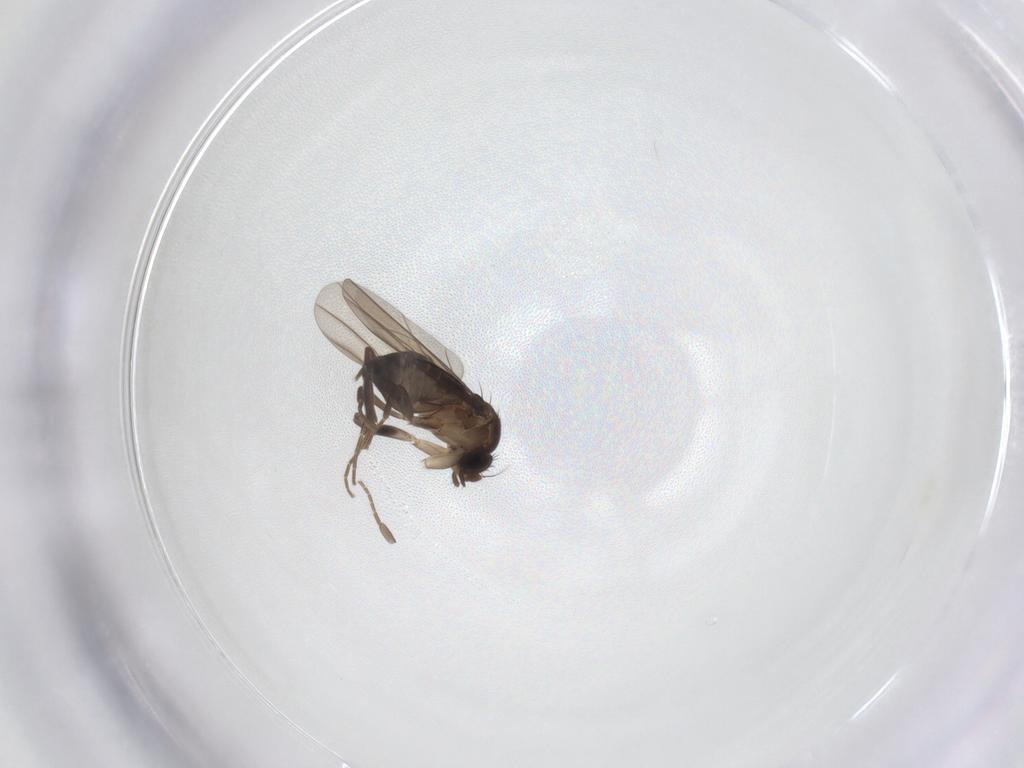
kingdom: Animalia
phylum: Arthropoda
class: Insecta
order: Diptera
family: Phoridae
